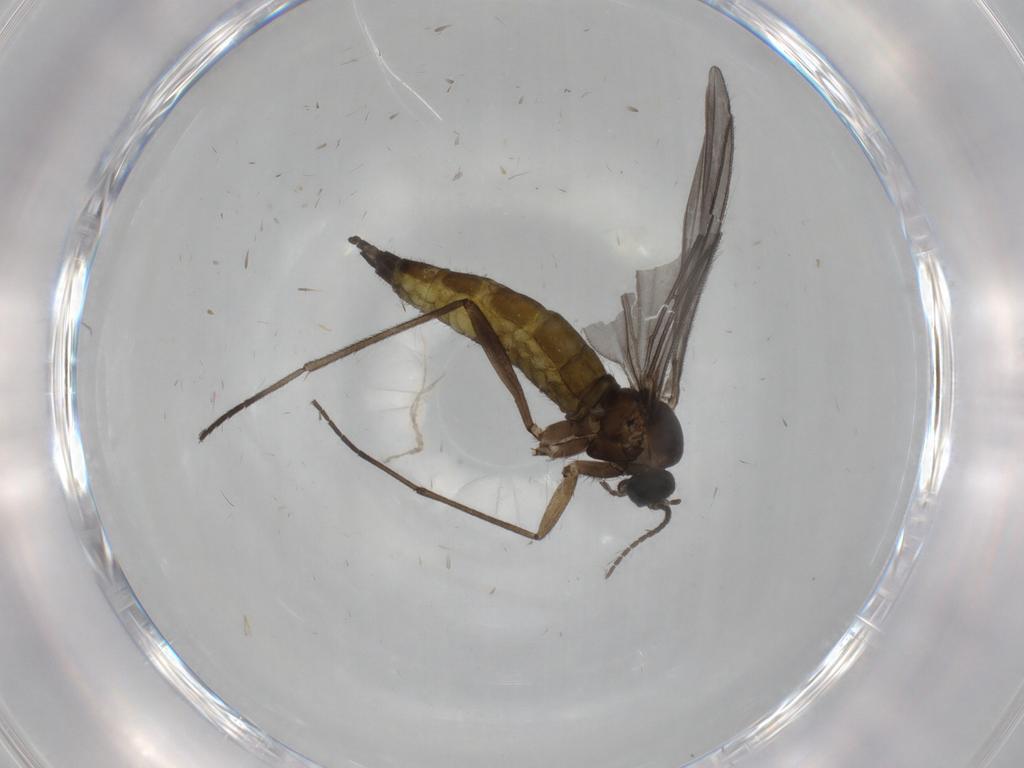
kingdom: Animalia
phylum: Arthropoda
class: Insecta
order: Diptera
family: Sciaridae
